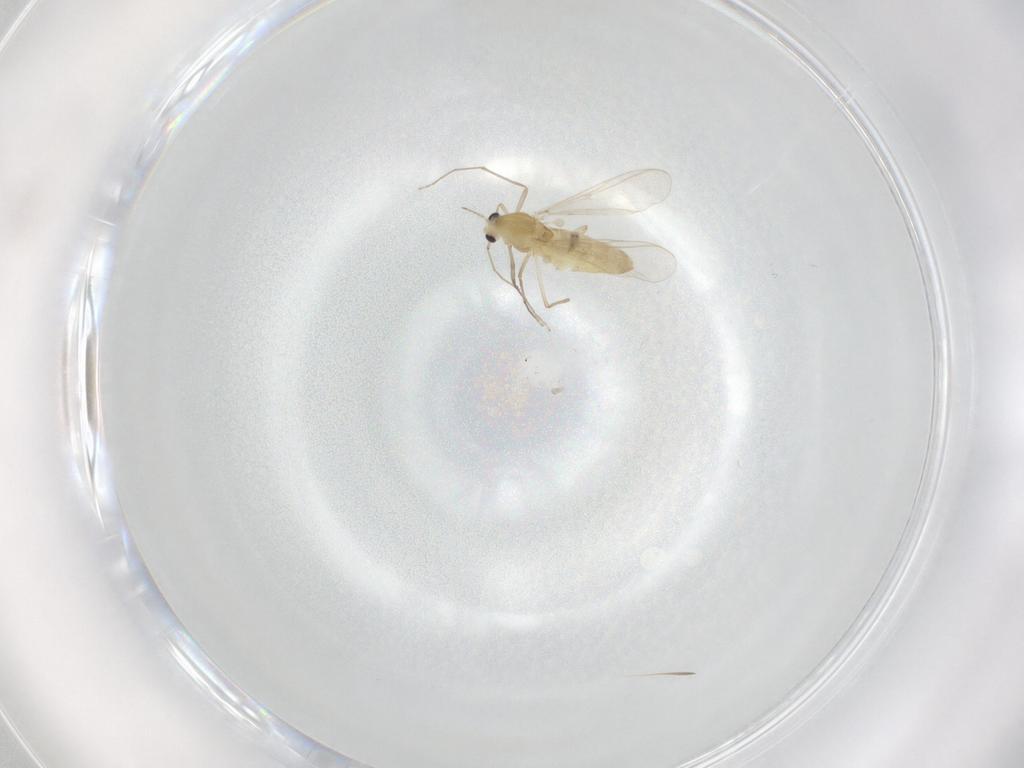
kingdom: Animalia
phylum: Arthropoda
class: Insecta
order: Diptera
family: Chironomidae
